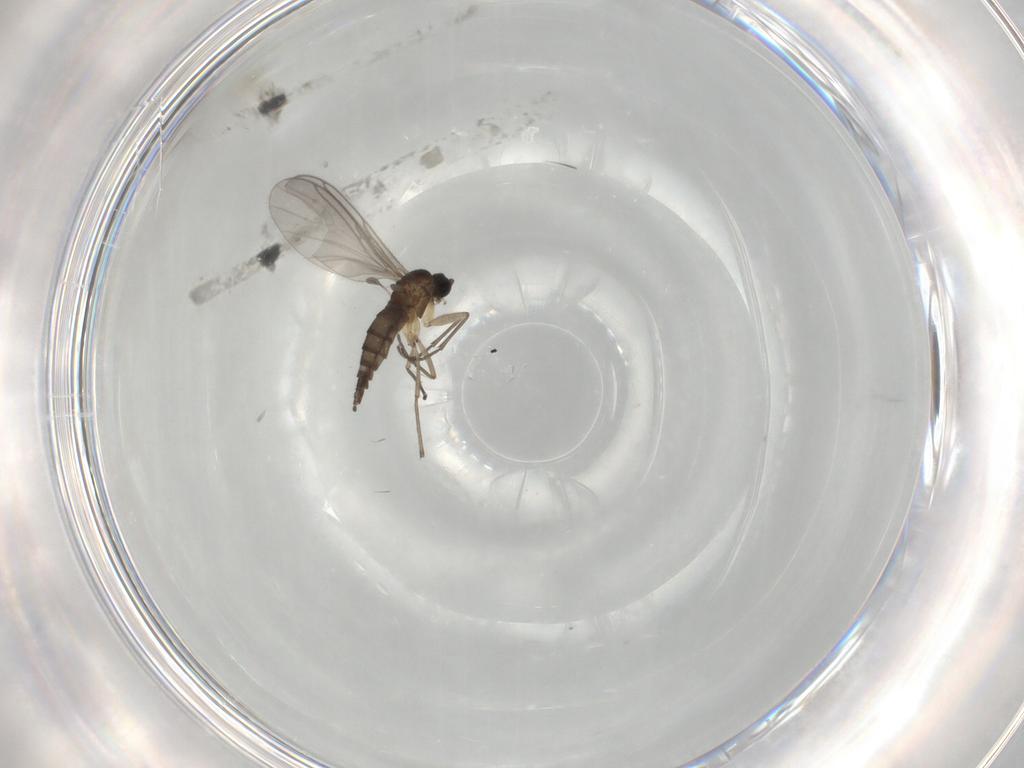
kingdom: Animalia
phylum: Arthropoda
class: Insecta
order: Diptera
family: Sciaridae
